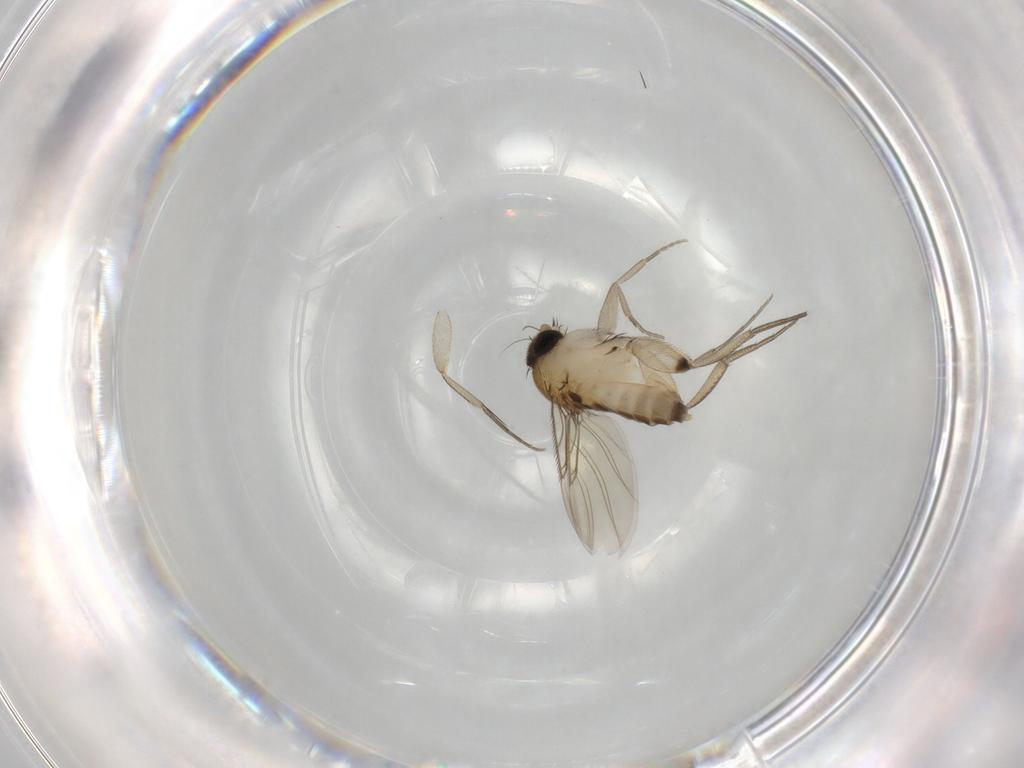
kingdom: Animalia
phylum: Arthropoda
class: Insecta
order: Diptera
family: Phoridae
